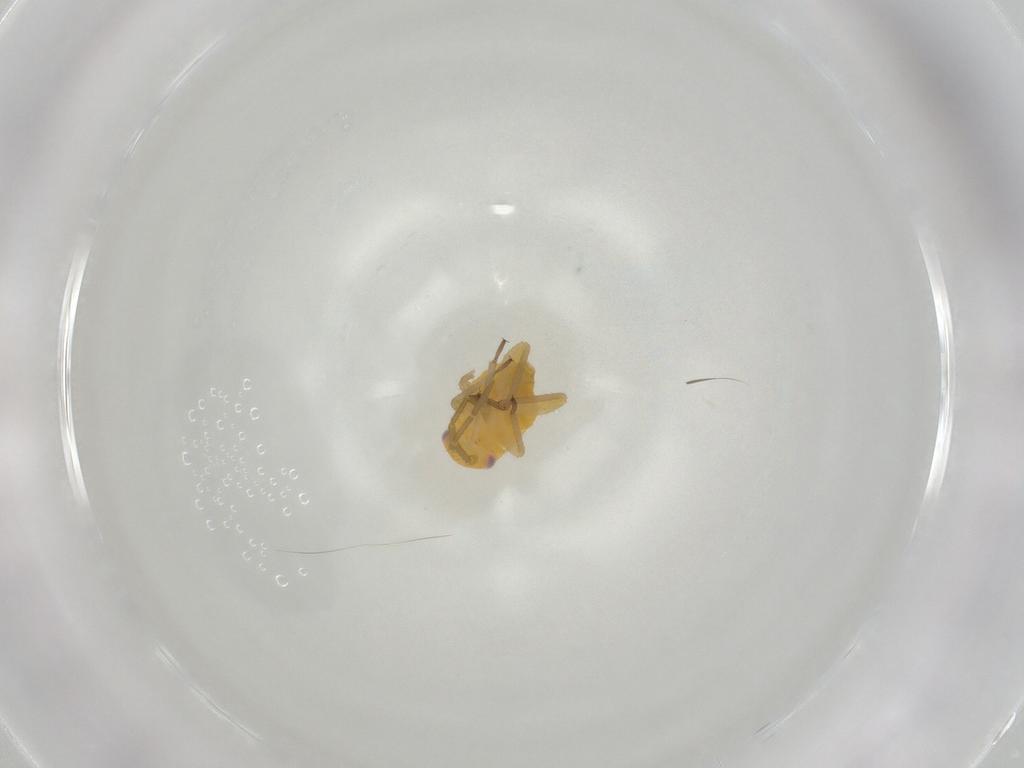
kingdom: Animalia
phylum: Arthropoda
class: Insecta
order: Hemiptera
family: Miridae
